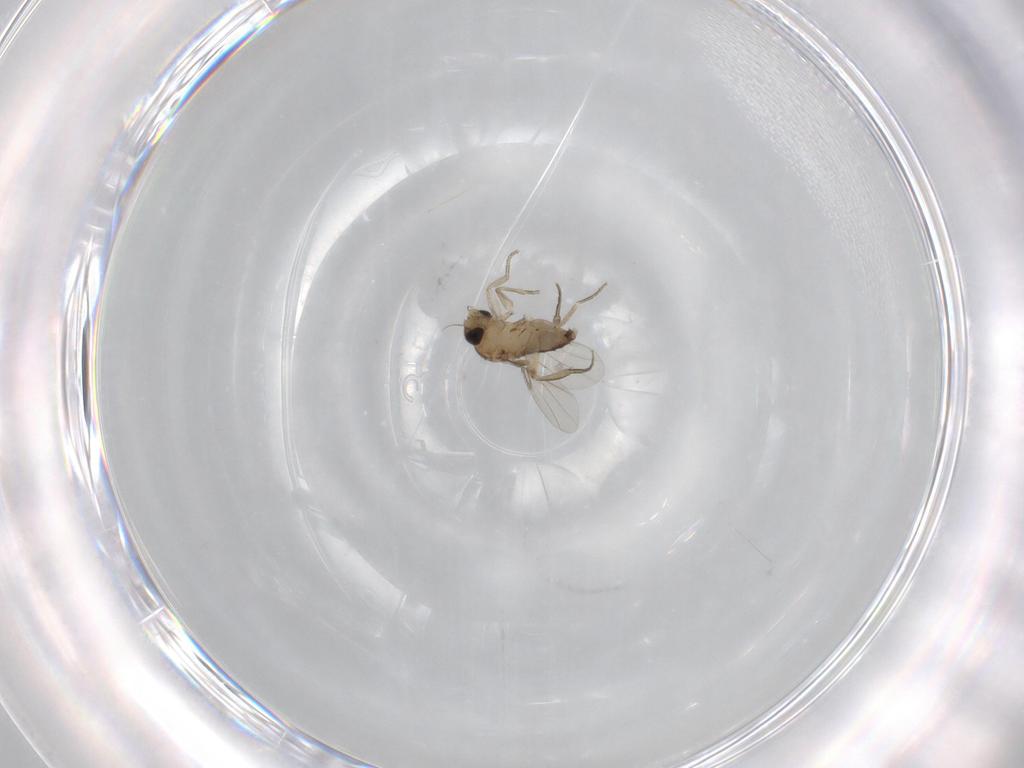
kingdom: Animalia
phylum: Arthropoda
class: Insecta
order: Diptera
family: Phoridae
